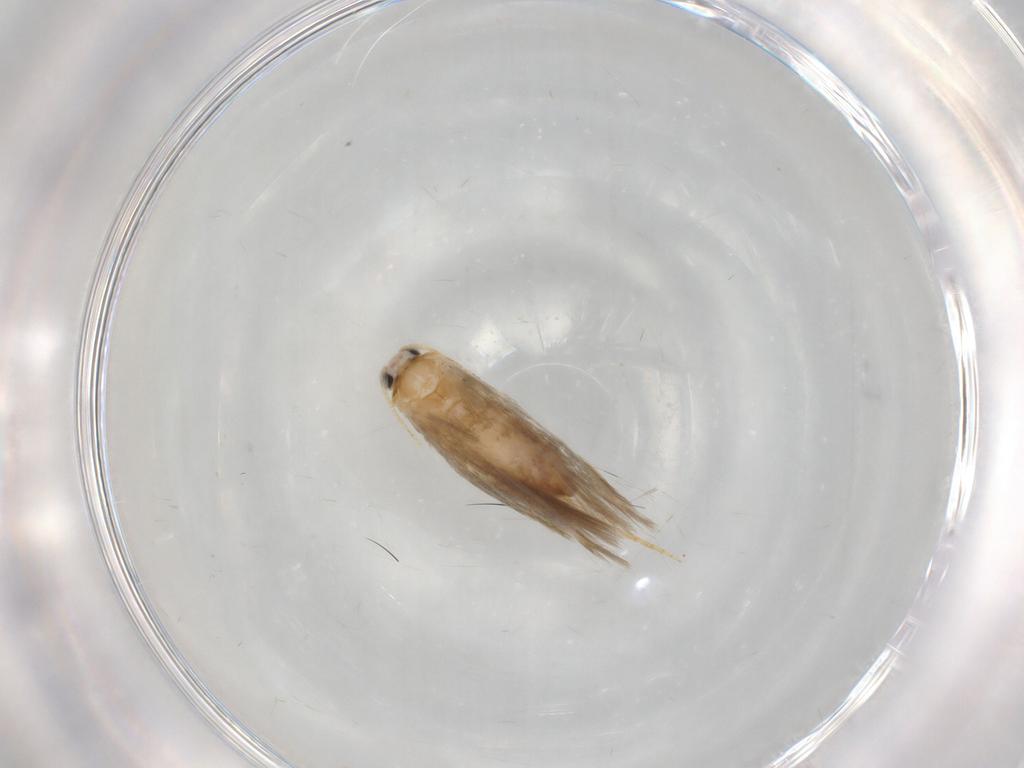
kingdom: Animalia
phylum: Arthropoda
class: Insecta
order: Lepidoptera
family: Nepticulidae
